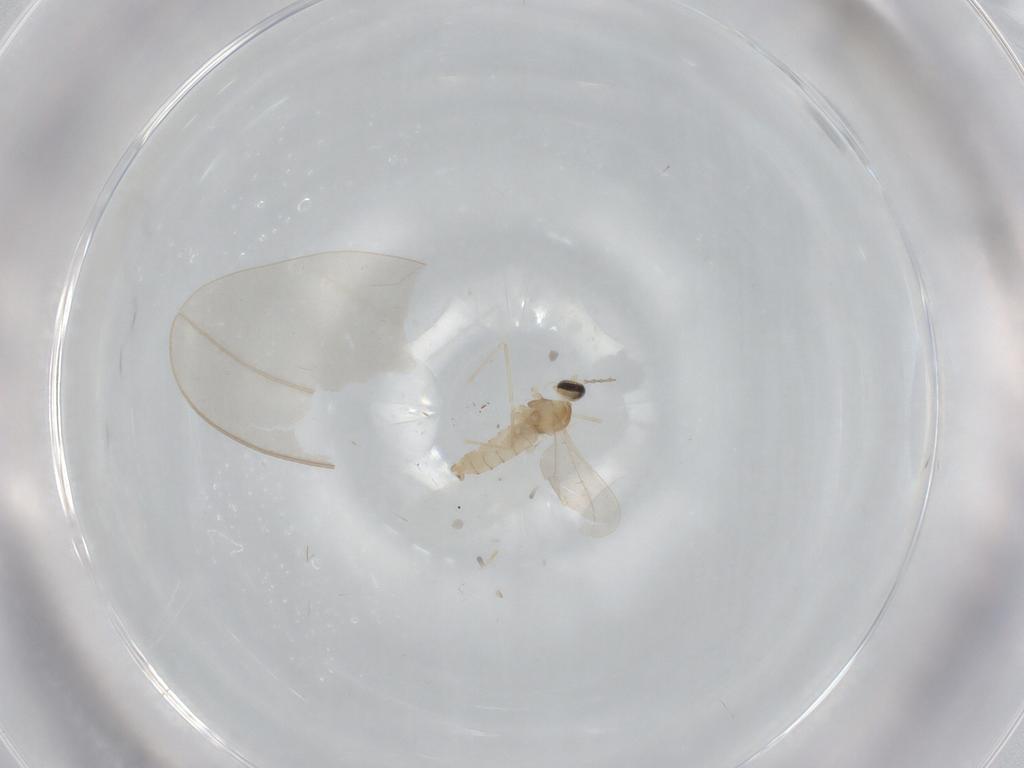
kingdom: Animalia
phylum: Arthropoda
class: Insecta
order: Diptera
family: Cecidomyiidae
